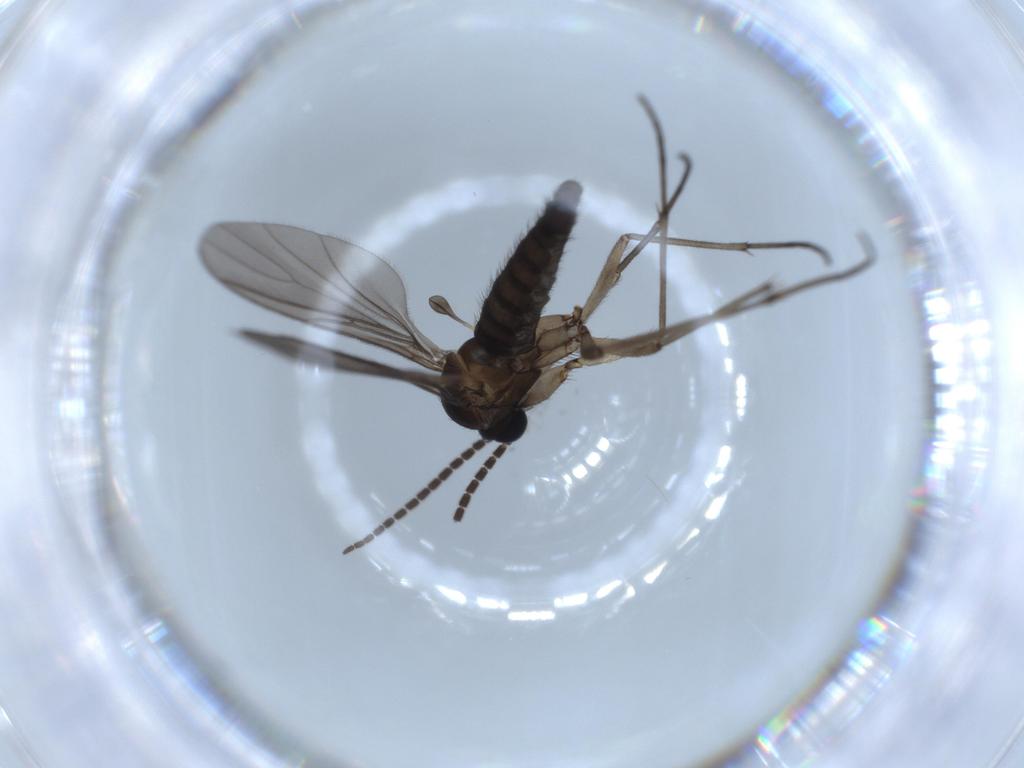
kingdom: Animalia
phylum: Arthropoda
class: Insecta
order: Diptera
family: Sciaridae
